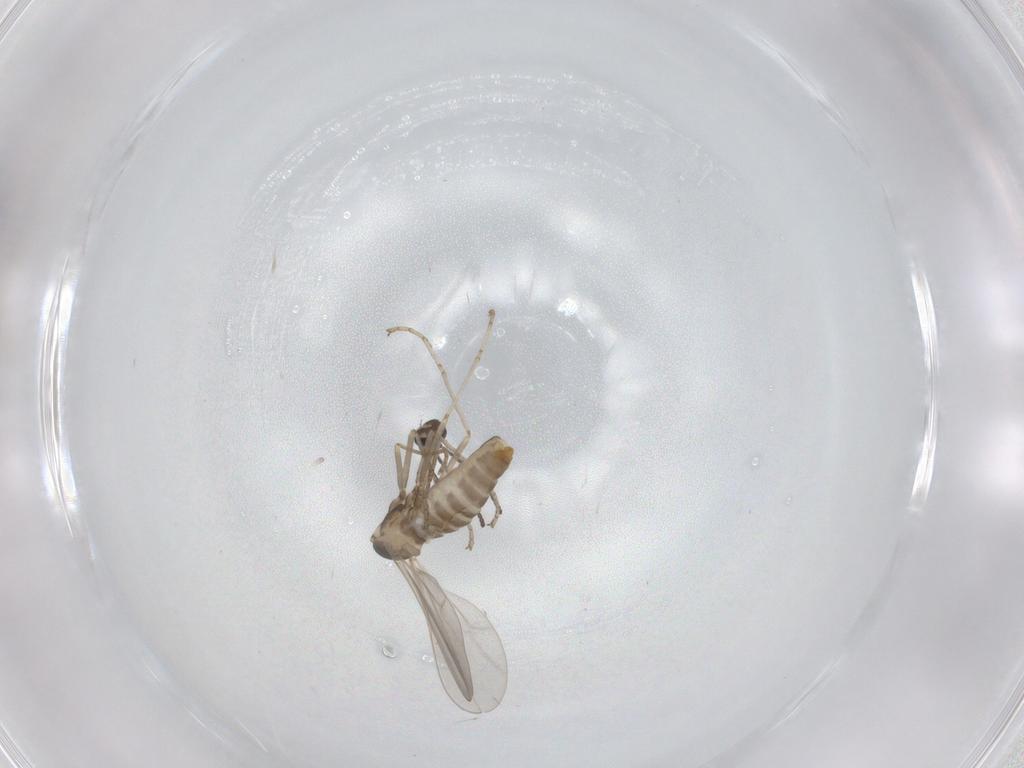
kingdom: Animalia
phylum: Arthropoda
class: Insecta
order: Diptera
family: Cecidomyiidae
